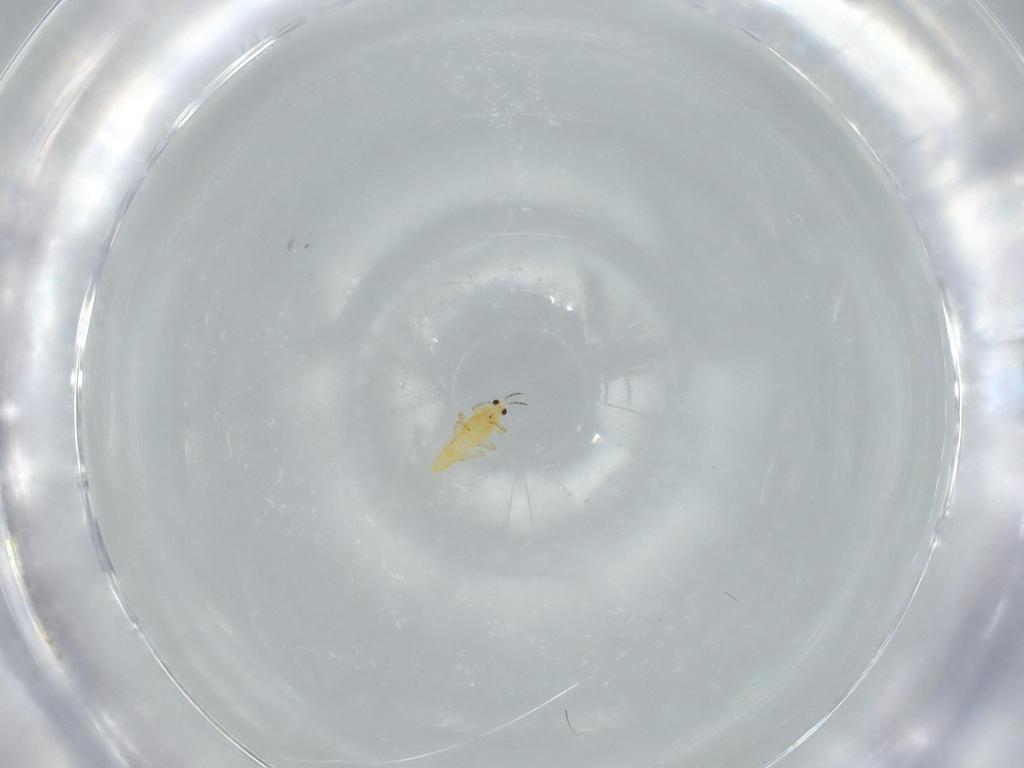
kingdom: Animalia
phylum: Arthropoda
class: Insecta
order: Thysanoptera
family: Thripidae
